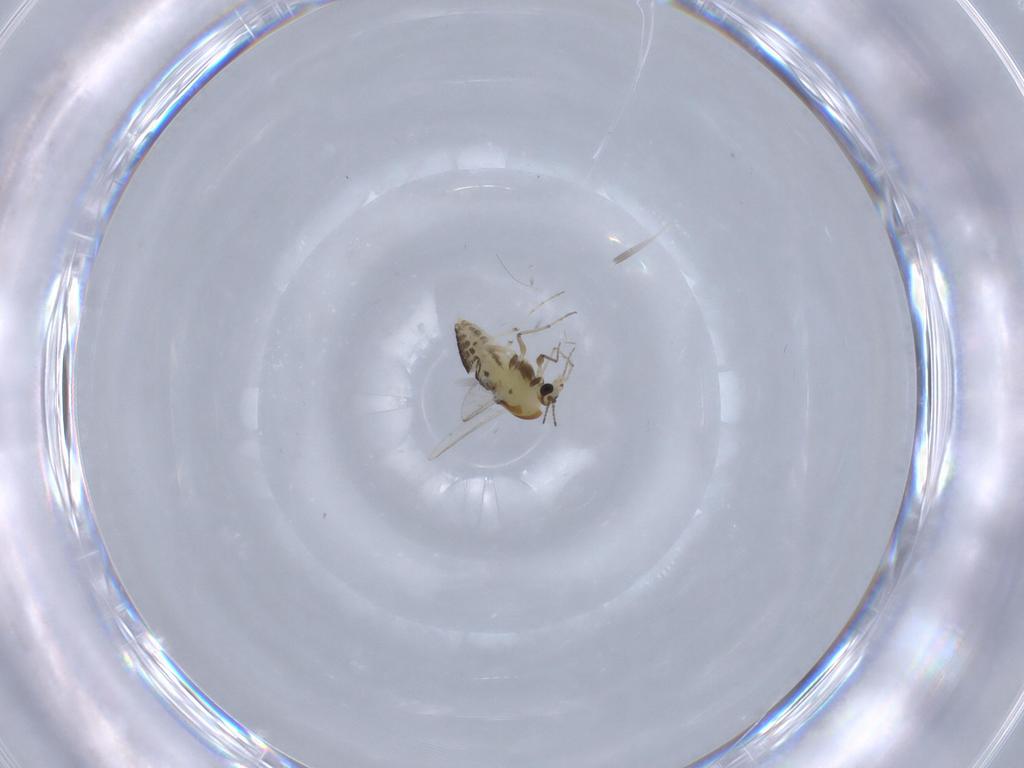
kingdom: Animalia
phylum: Arthropoda
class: Insecta
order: Diptera
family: Chironomidae
